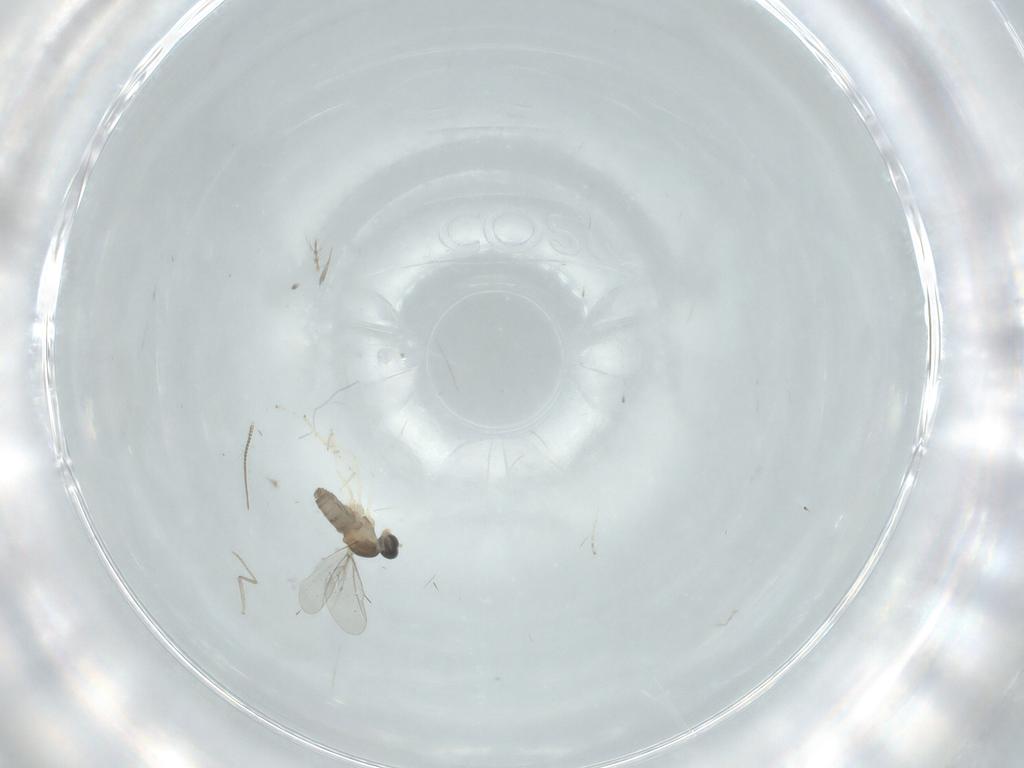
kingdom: Animalia
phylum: Arthropoda
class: Insecta
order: Diptera
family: Cecidomyiidae
